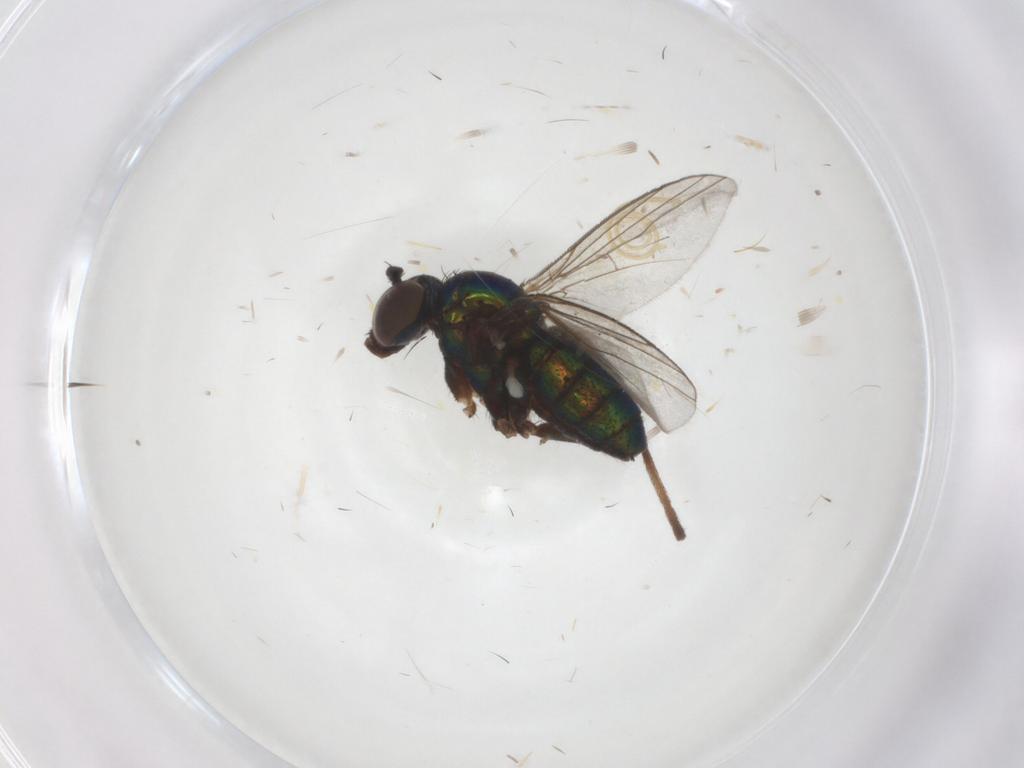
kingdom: Animalia
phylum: Arthropoda
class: Insecta
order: Diptera
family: Dolichopodidae
